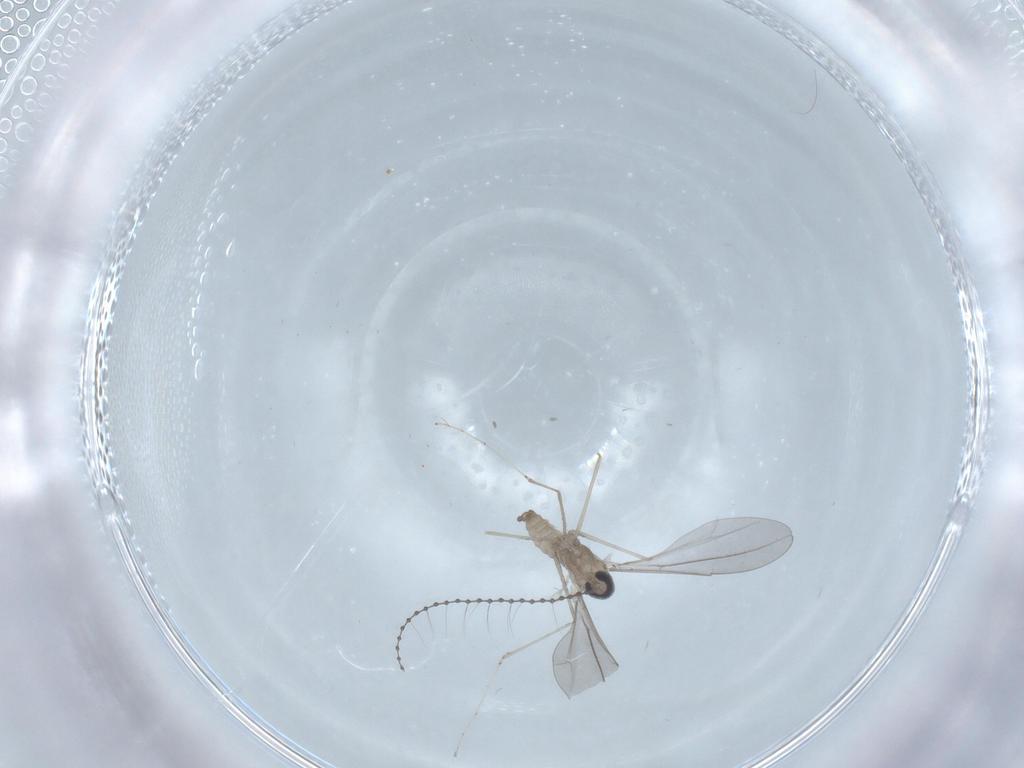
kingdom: Animalia
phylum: Arthropoda
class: Insecta
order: Diptera
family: Cecidomyiidae
